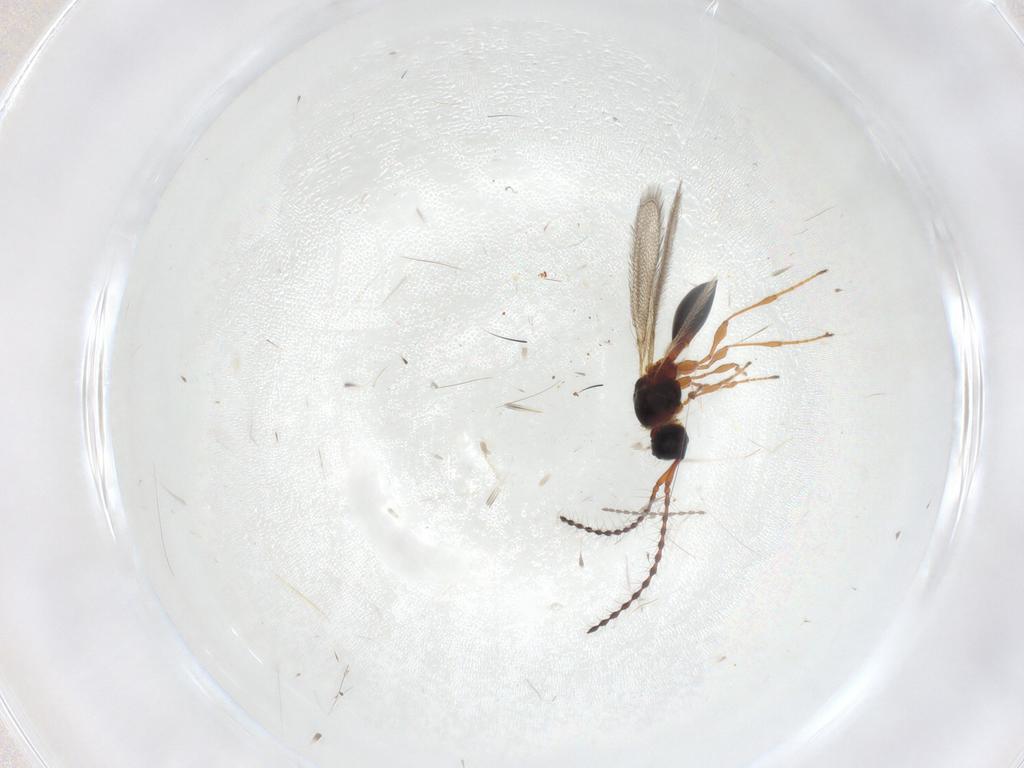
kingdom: Animalia
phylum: Arthropoda
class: Insecta
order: Hymenoptera
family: Diapriidae
